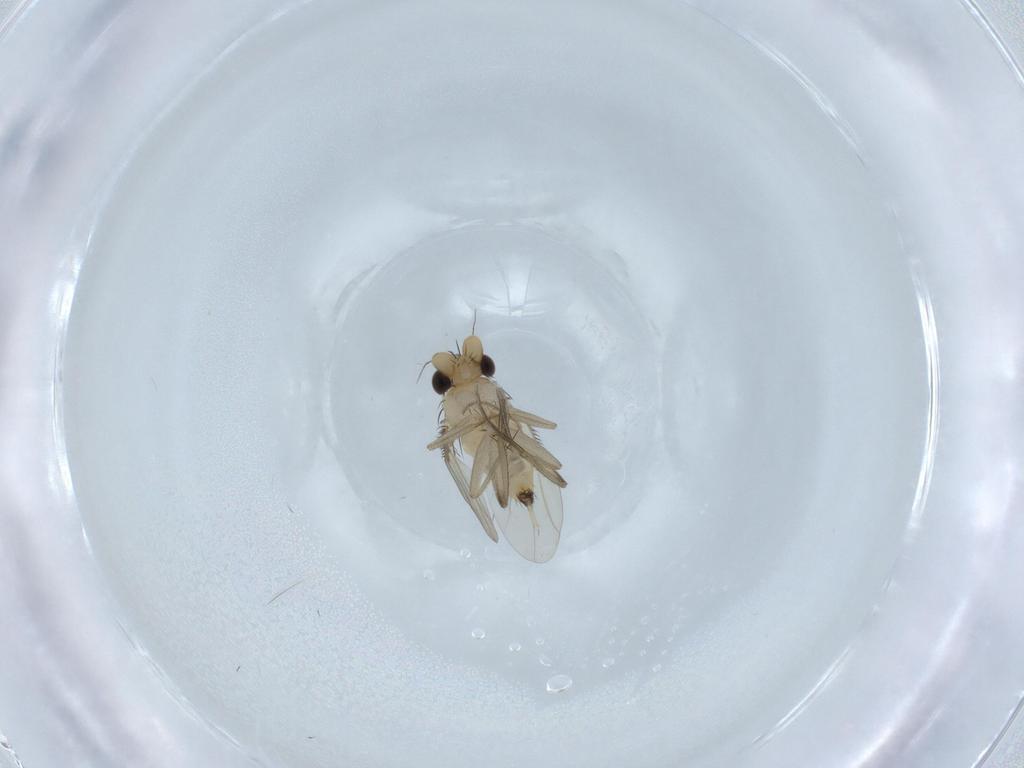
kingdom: Animalia
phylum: Arthropoda
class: Insecta
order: Diptera
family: Phoridae
